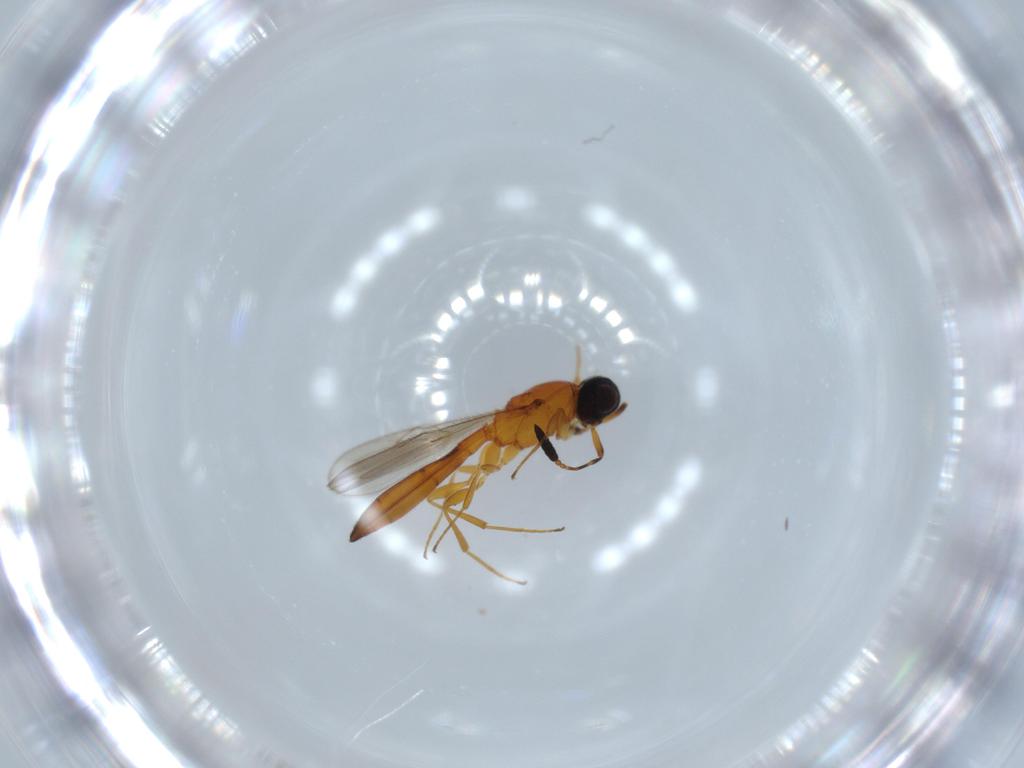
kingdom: Animalia
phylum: Arthropoda
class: Insecta
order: Hymenoptera
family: Scelionidae
